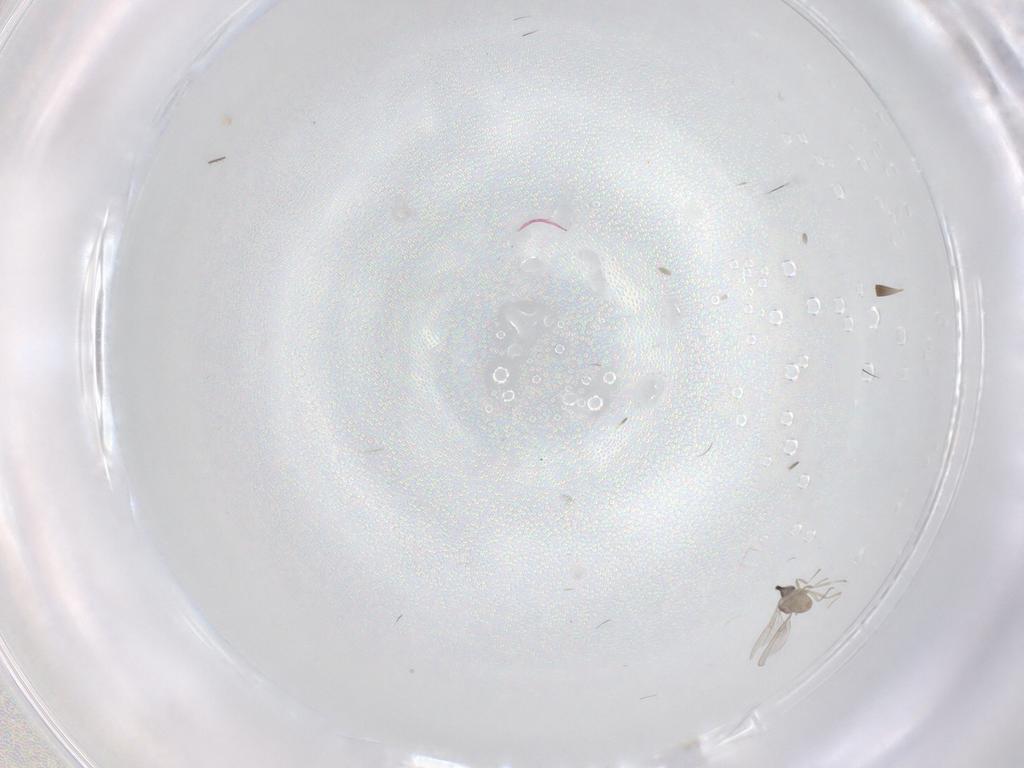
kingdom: Animalia
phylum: Arthropoda
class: Insecta
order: Diptera
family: Cecidomyiidae
